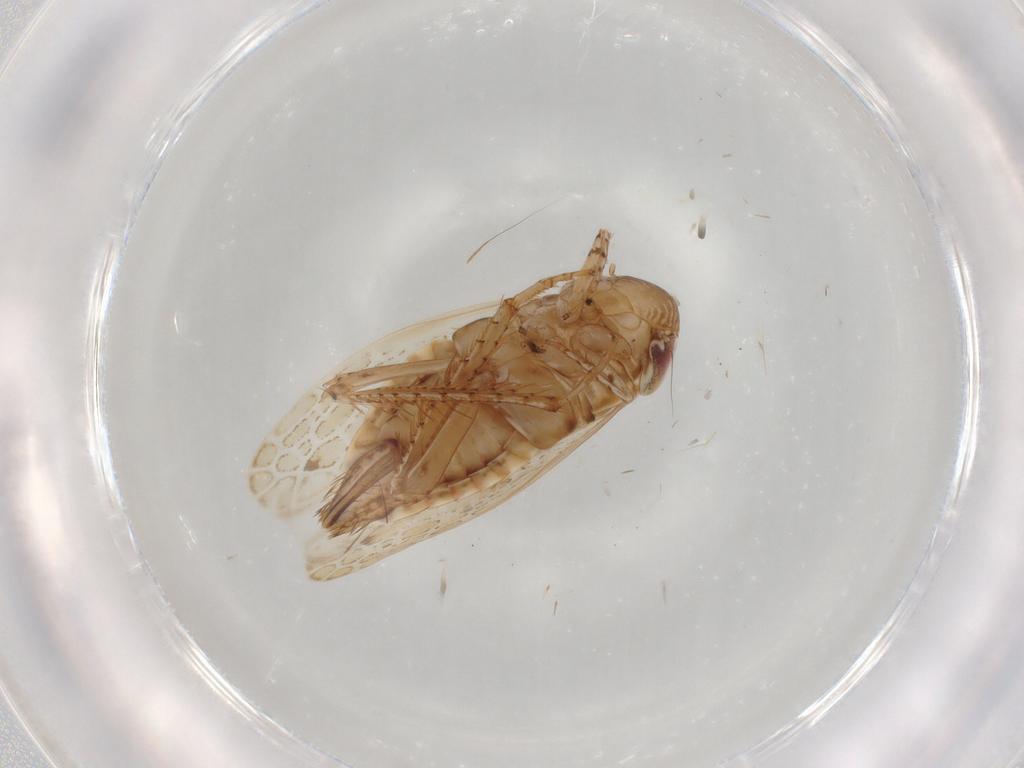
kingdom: Animalia
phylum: Arthropoda
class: Insecta
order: Hemiptera
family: Cicadellidae
